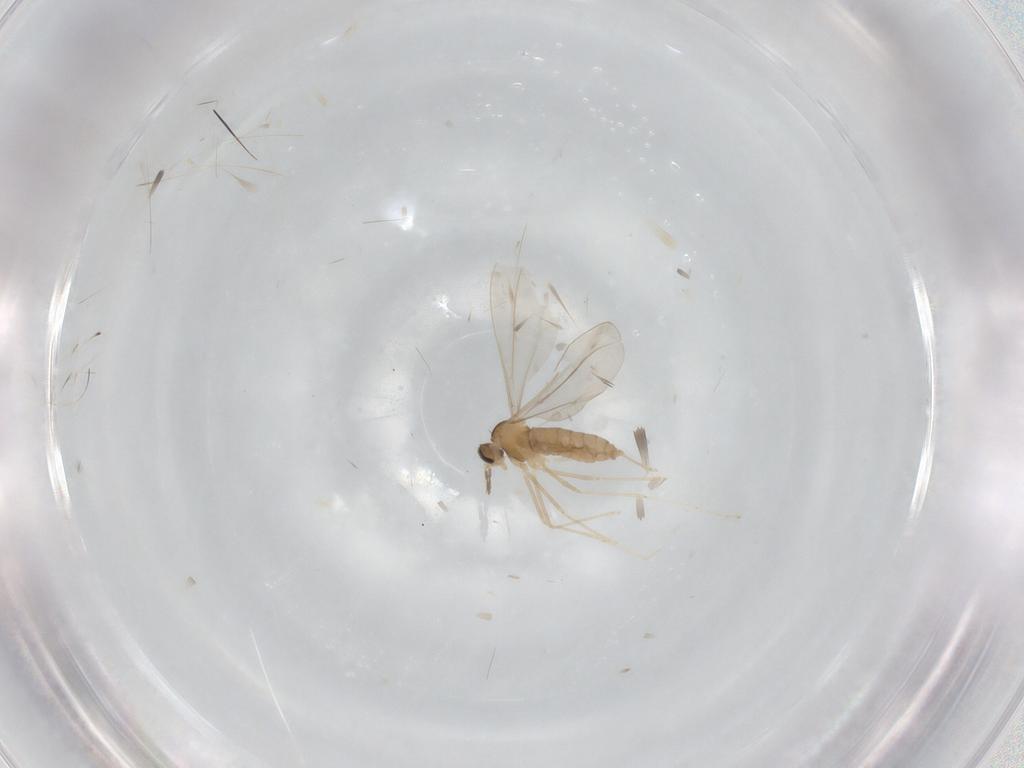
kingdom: Animalia
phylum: Arthropoda
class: Insecta
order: Diptera
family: Cecidomyiidae
